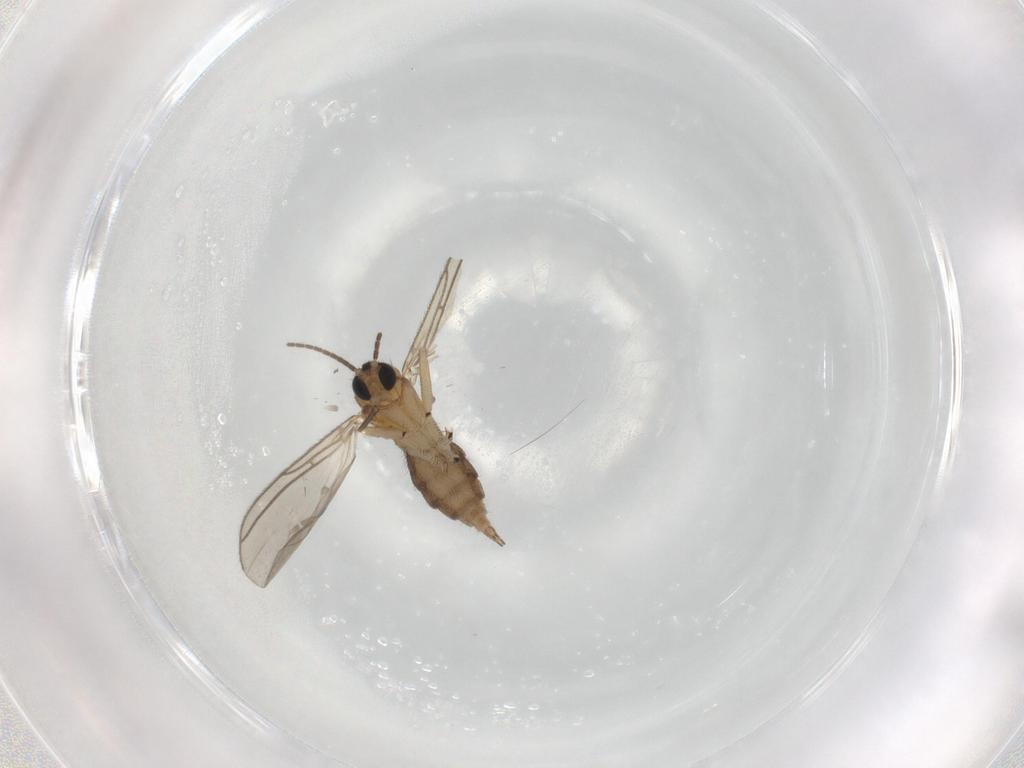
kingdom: Animalia
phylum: Arthropoda
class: Insecta
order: Diptera
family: Sciaridae
